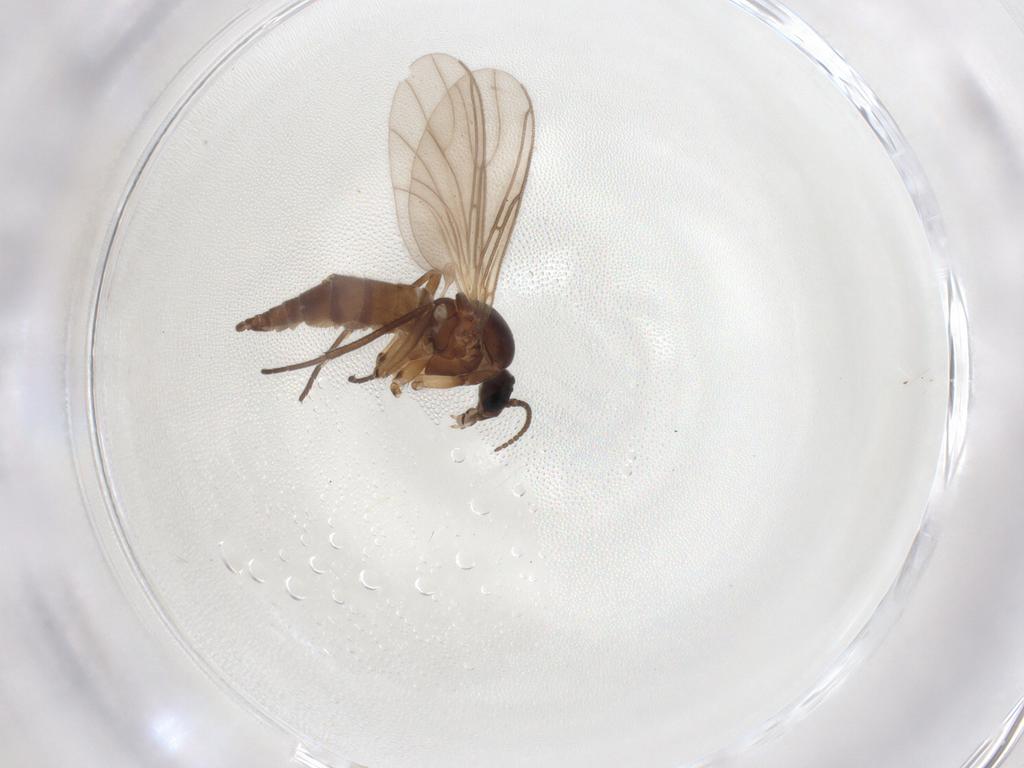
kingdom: Animalia
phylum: Arthropoda
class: Insecta
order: Diptera
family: Sciaridae
